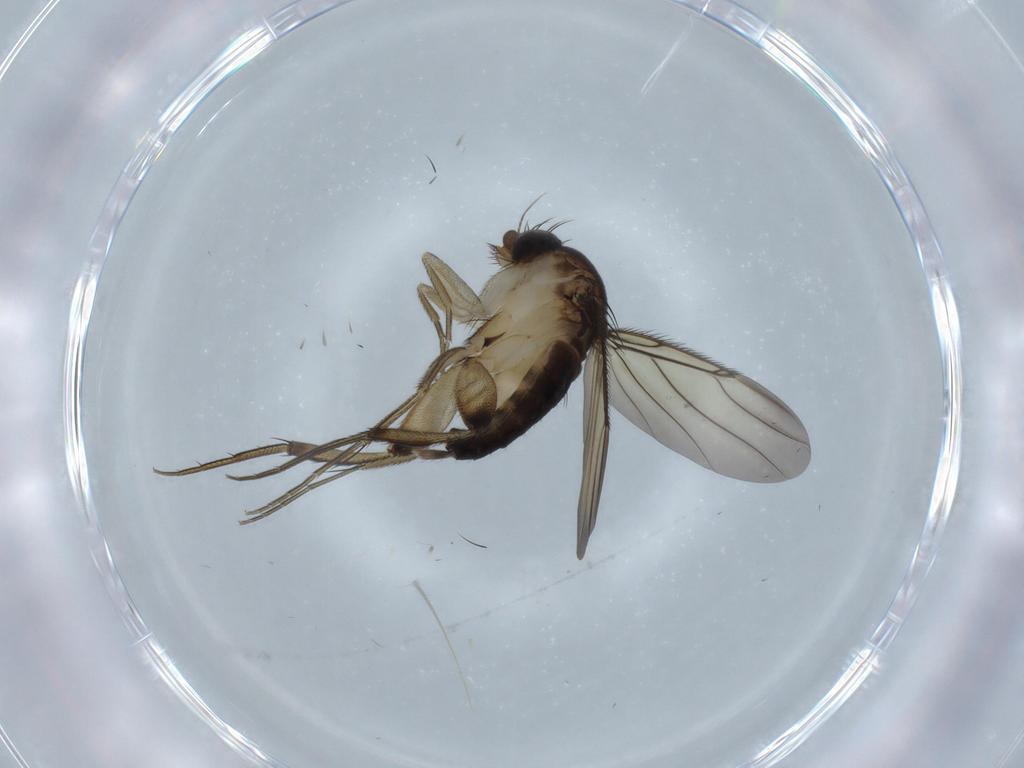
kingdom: Animalia
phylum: Arthropoda
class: Insecta
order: Diptera
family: Phoridae
